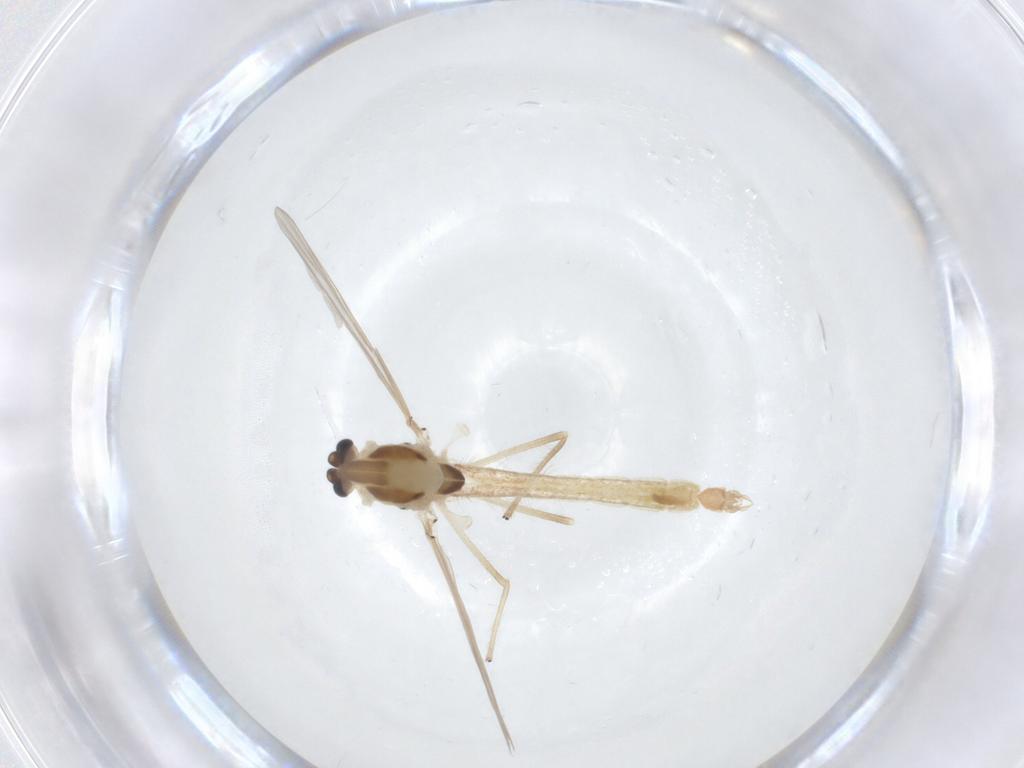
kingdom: Animalia
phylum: Arthropoda
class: Insecta
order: Diptera
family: Chironomidae
